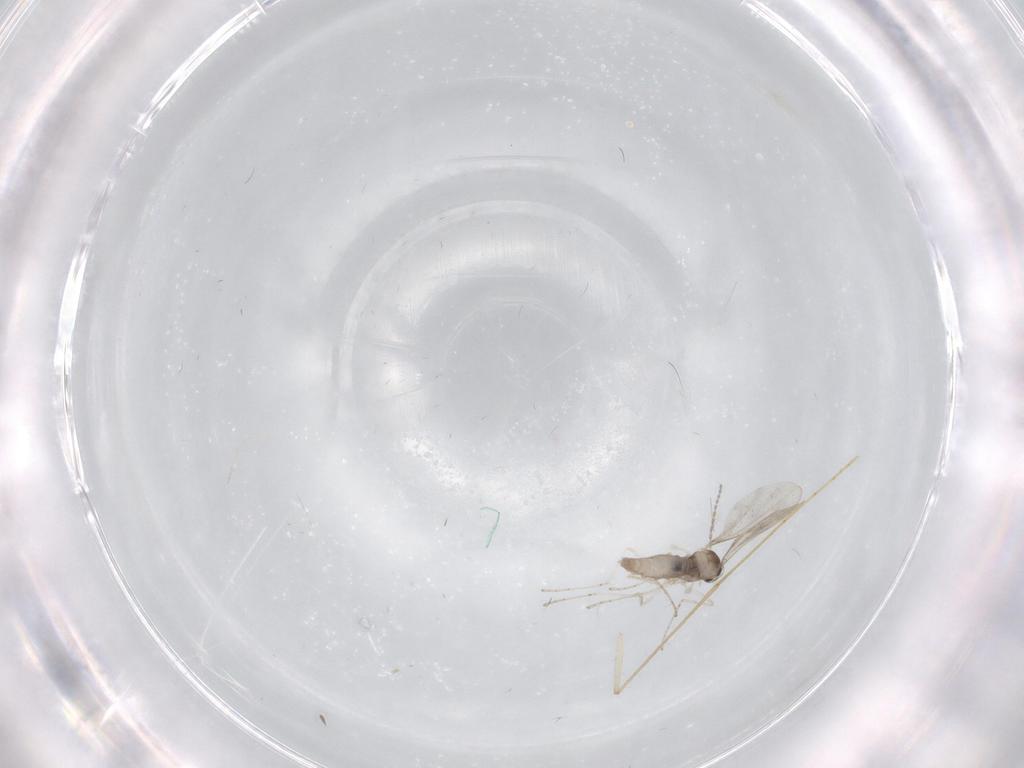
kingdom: Animalia
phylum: Arthropoda
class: Insecta
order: Diptera
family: Psychodidae
